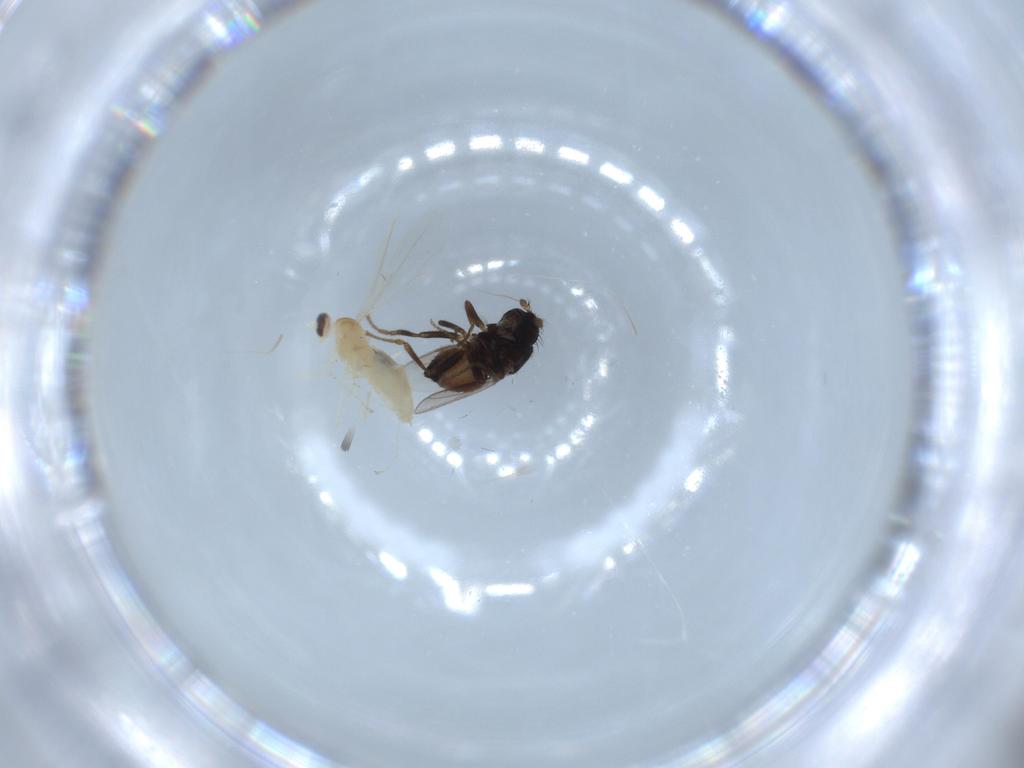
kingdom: Animalia
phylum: Arthropoda
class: Insecta
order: Diptera
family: Cecidomyiidae
